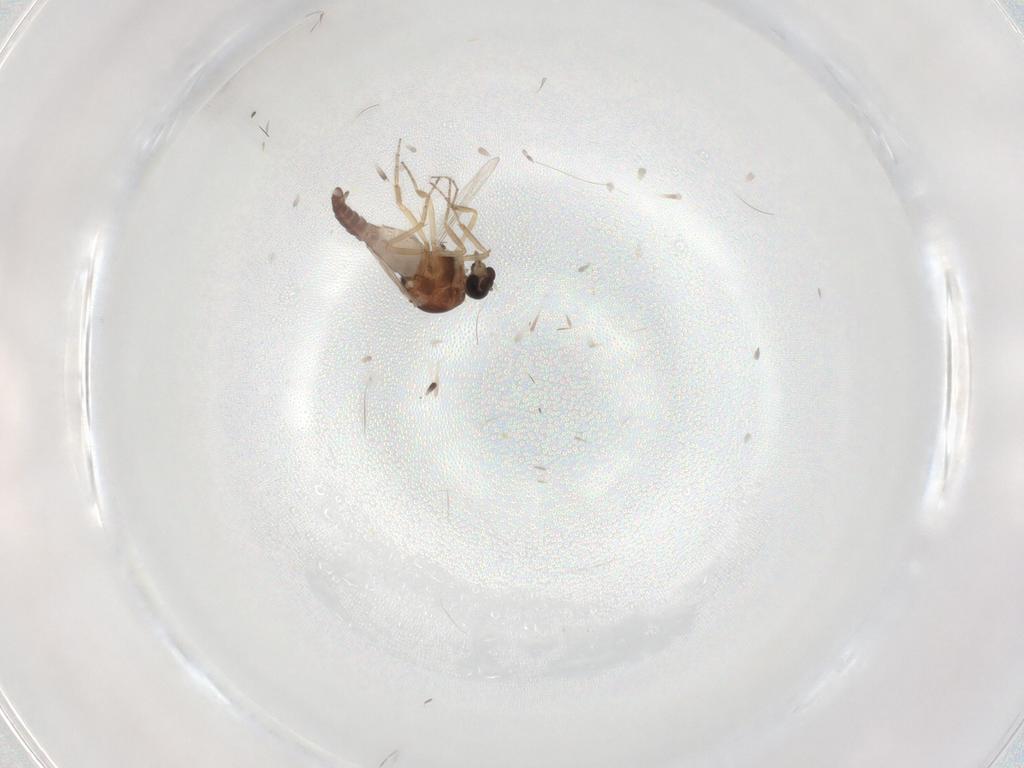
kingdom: Animalia
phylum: Arthropoda
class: Insecta
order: Diptera
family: Ceratopogonidae
